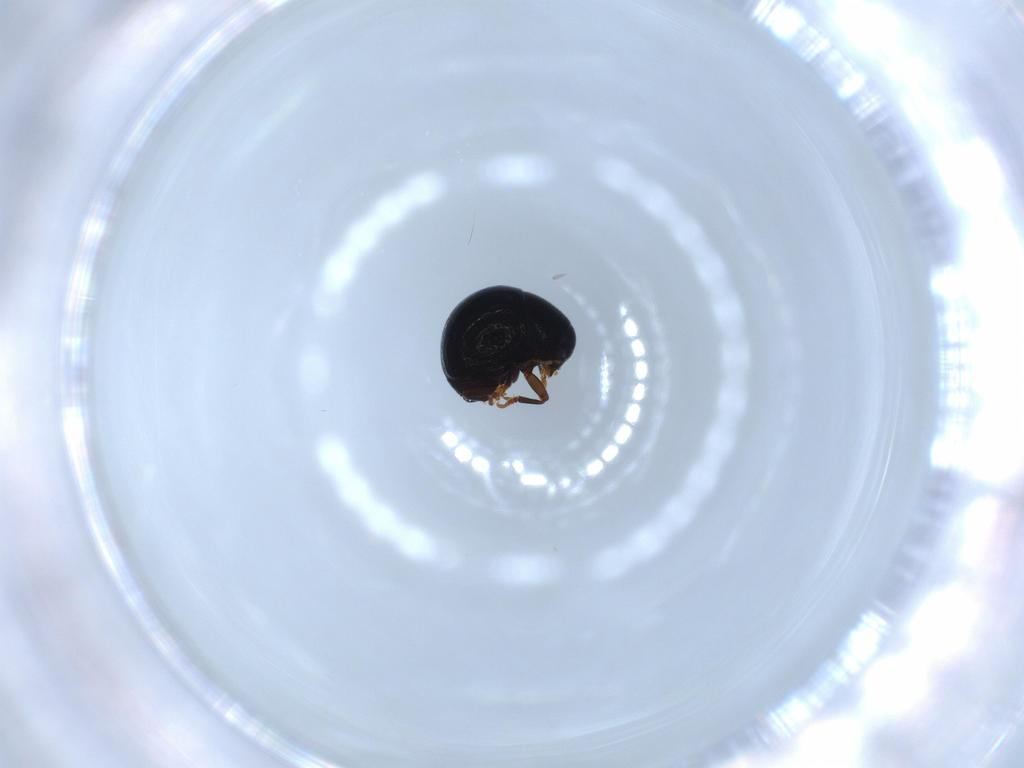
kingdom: Animalia
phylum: Arthropoda
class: Insecta
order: Coleoptera
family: Anthribidae
